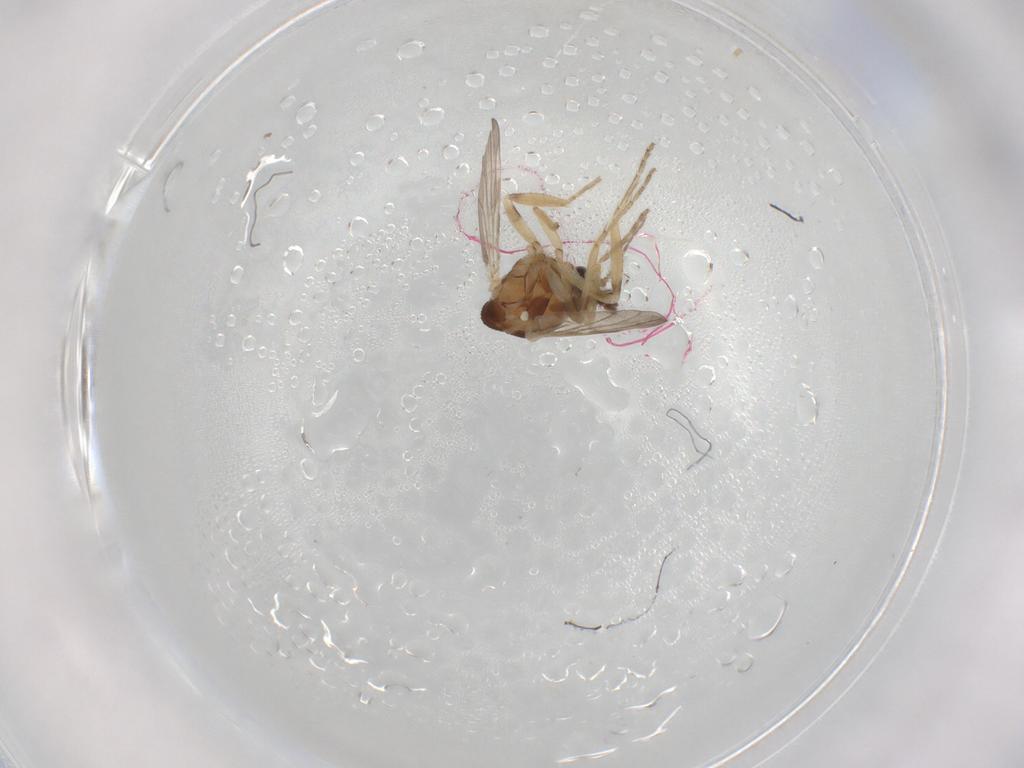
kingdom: Animalia
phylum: Arthropoda
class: Insecta
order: Diptera
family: Ceratopogonidae
